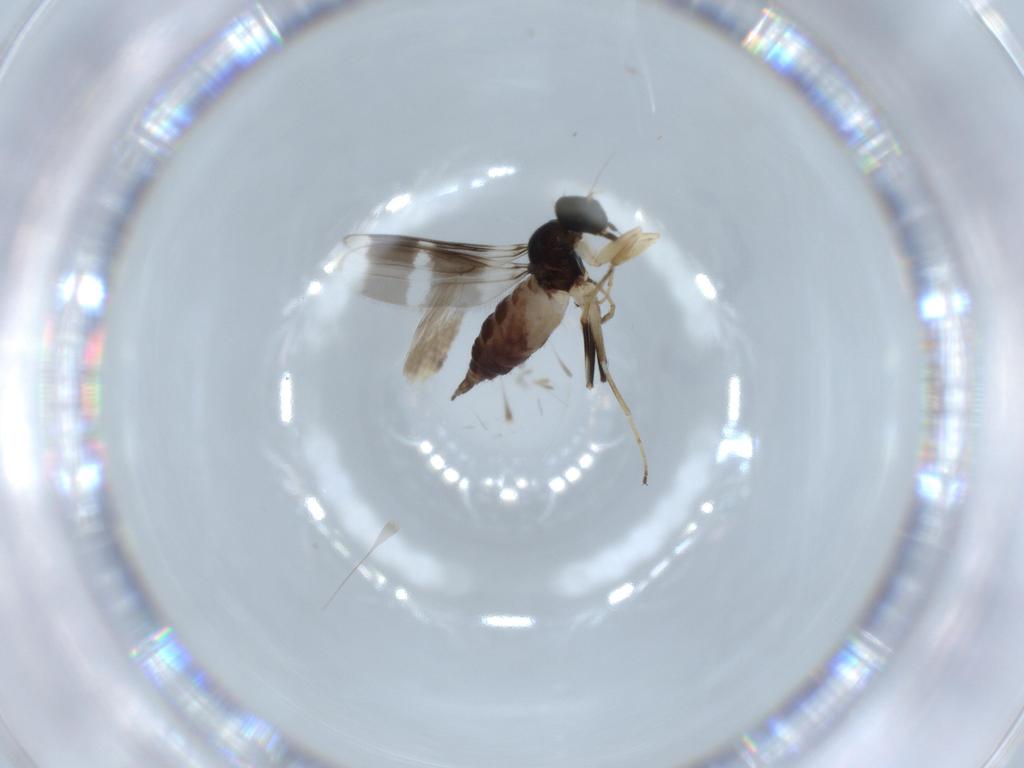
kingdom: Animalia
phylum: Arthropoda
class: Insecta
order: Diptera
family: Hybotidae
